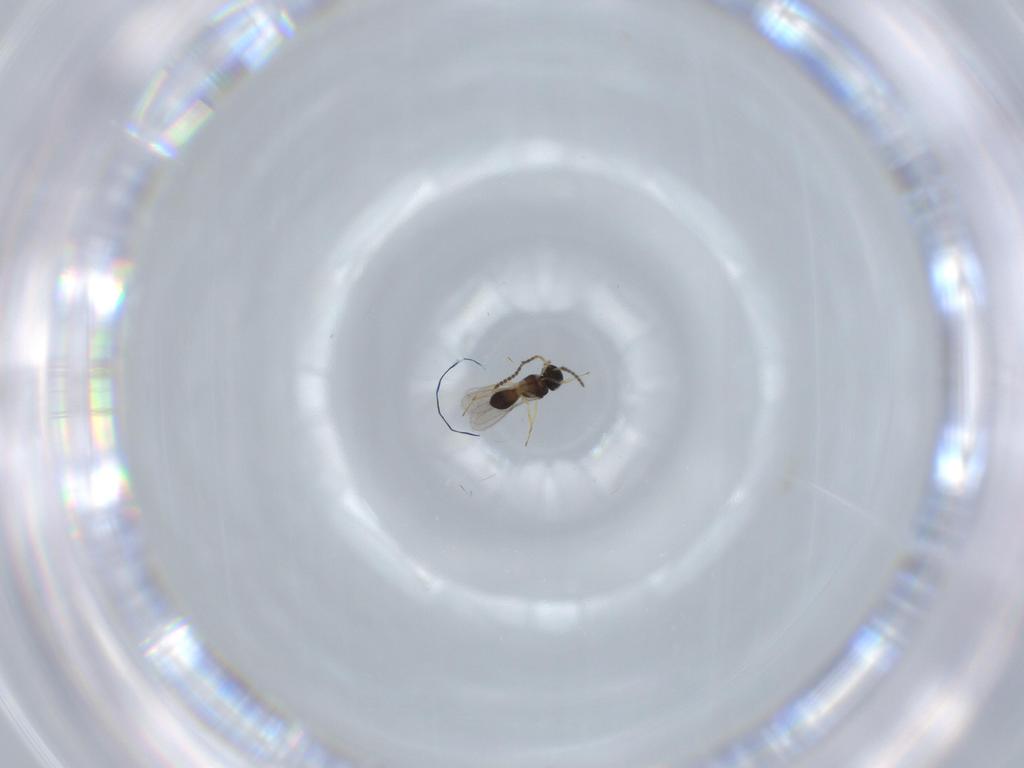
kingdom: Animalia
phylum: Arthropoda
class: Insecta
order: Hymenoptera
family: Scelionidae
